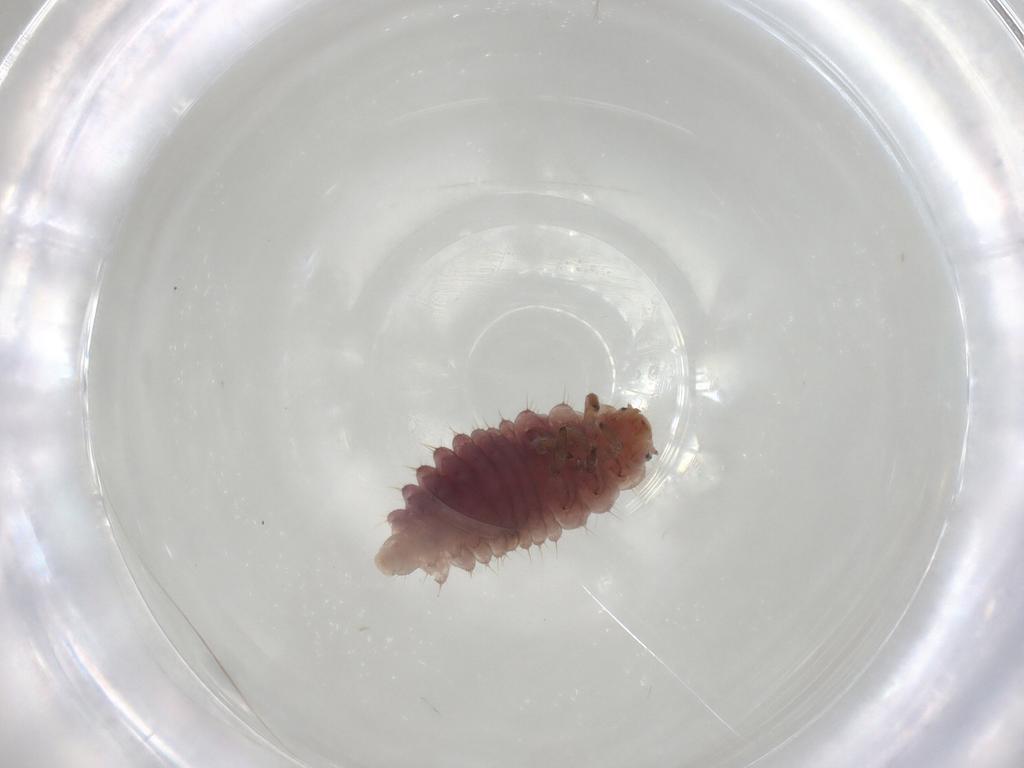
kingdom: Animalia
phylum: Arthropoda
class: Insecta
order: Coleoptera
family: Coccinellidae
